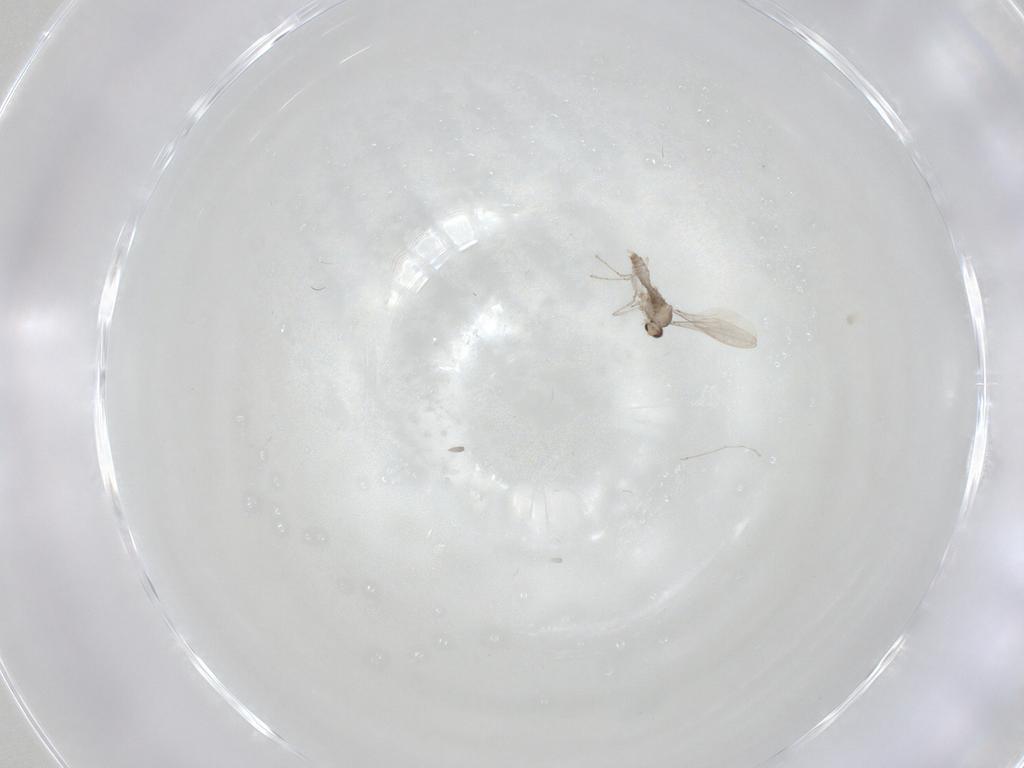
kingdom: Animalia
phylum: Arthropoda
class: Insecta
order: Diptera
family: Cecidomyiidae
